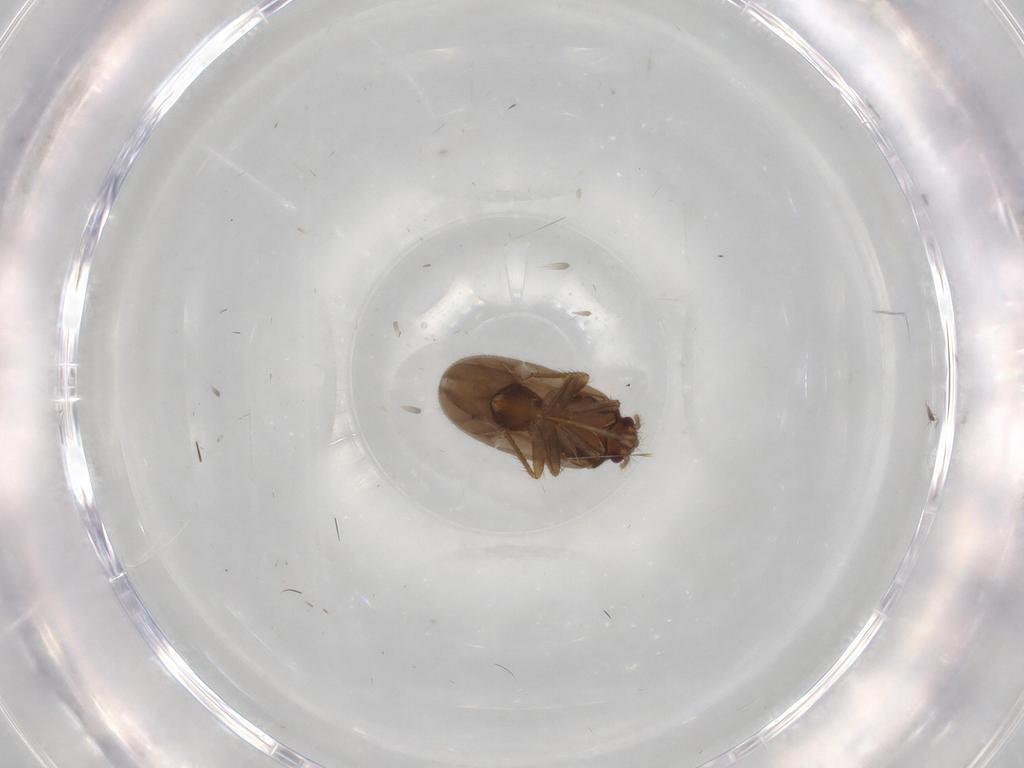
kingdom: Animalia
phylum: Arthropoda
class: Insecta
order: Hemiptera
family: Ceratocombidae
